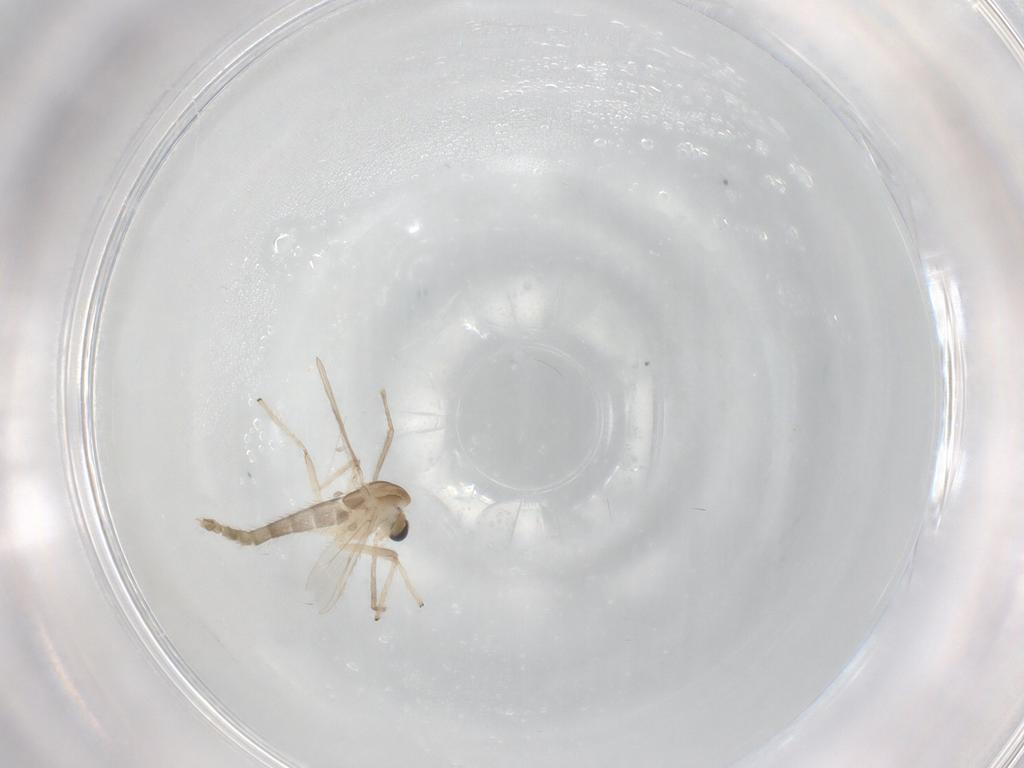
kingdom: Animalia
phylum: Arthropoda
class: Insecta
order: Diptera
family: Chironomidae
